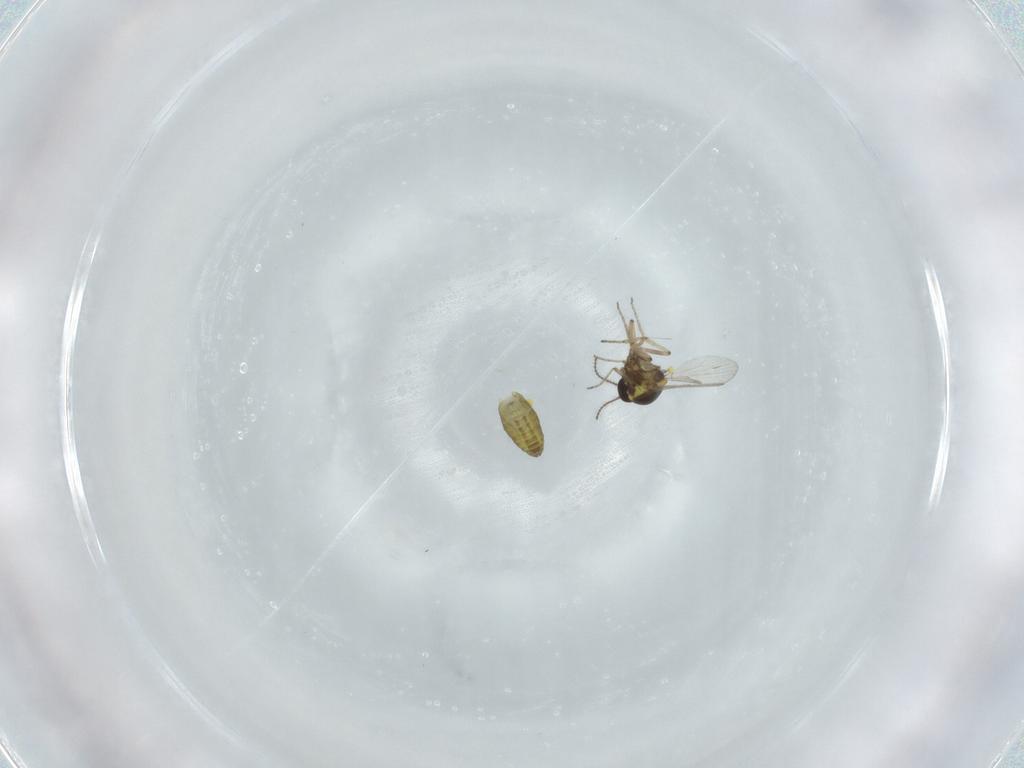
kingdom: Animalia
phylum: Arthropoda
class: Insecta
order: Diptera
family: Ceratopogonidae
